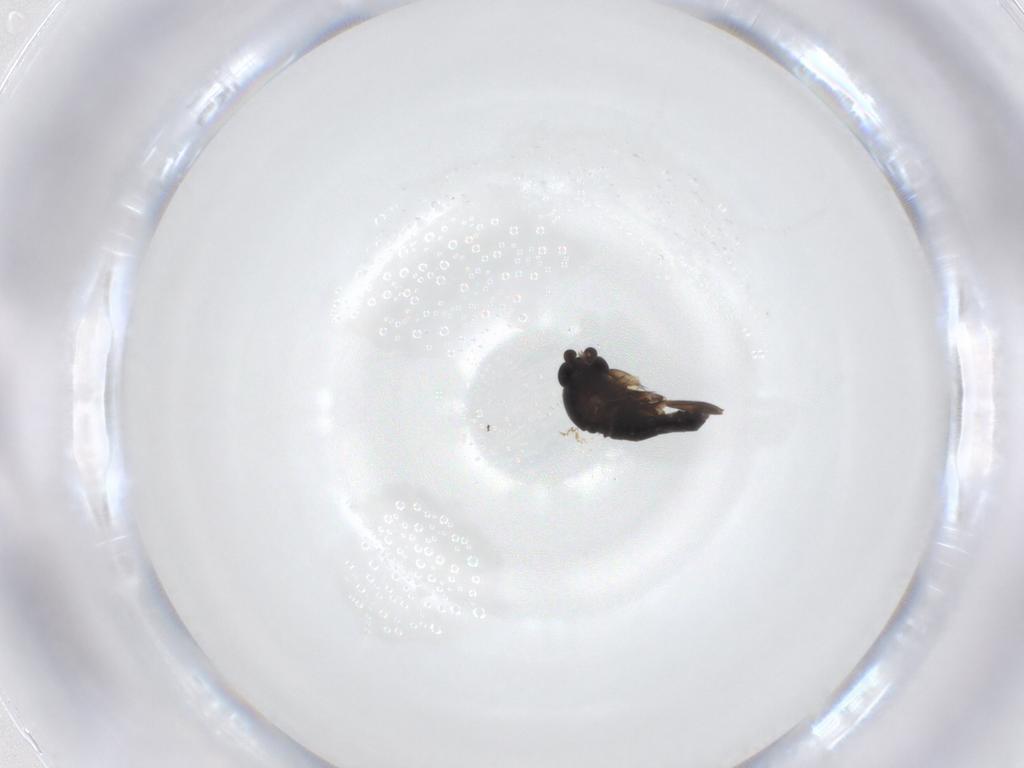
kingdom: Animalia
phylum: Arthropoda
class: Insecta
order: Diptera
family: Phoridae
